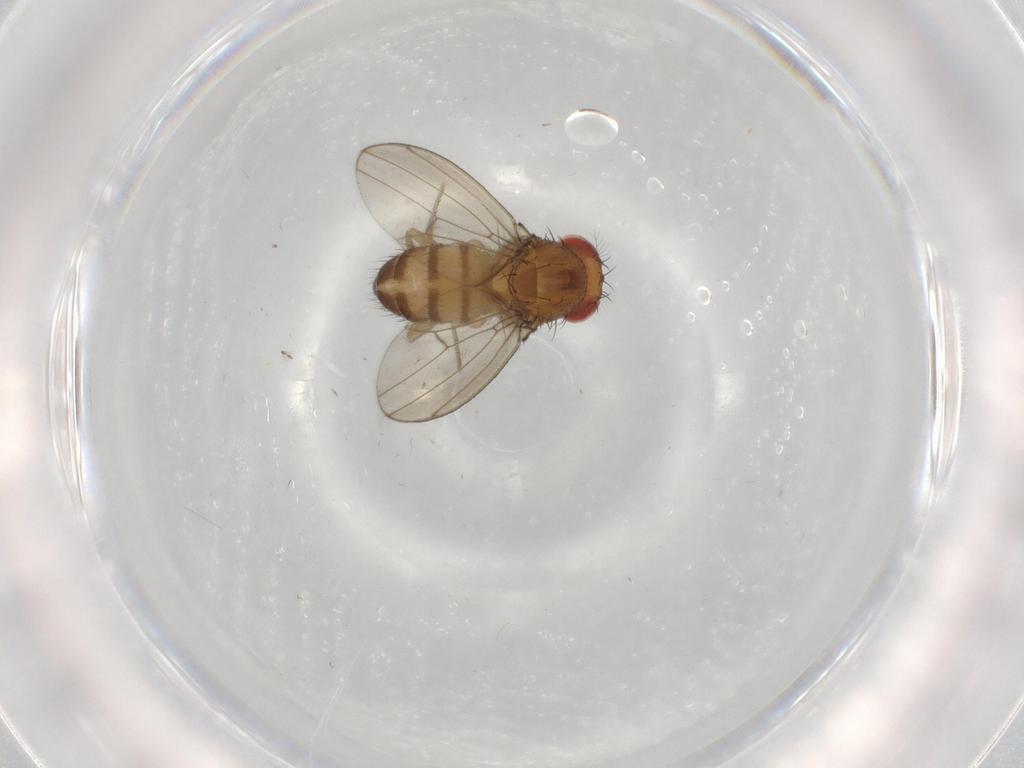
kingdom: Animalia
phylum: Arthropoda
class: Insecta
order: Diptera
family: Drosophilidae
